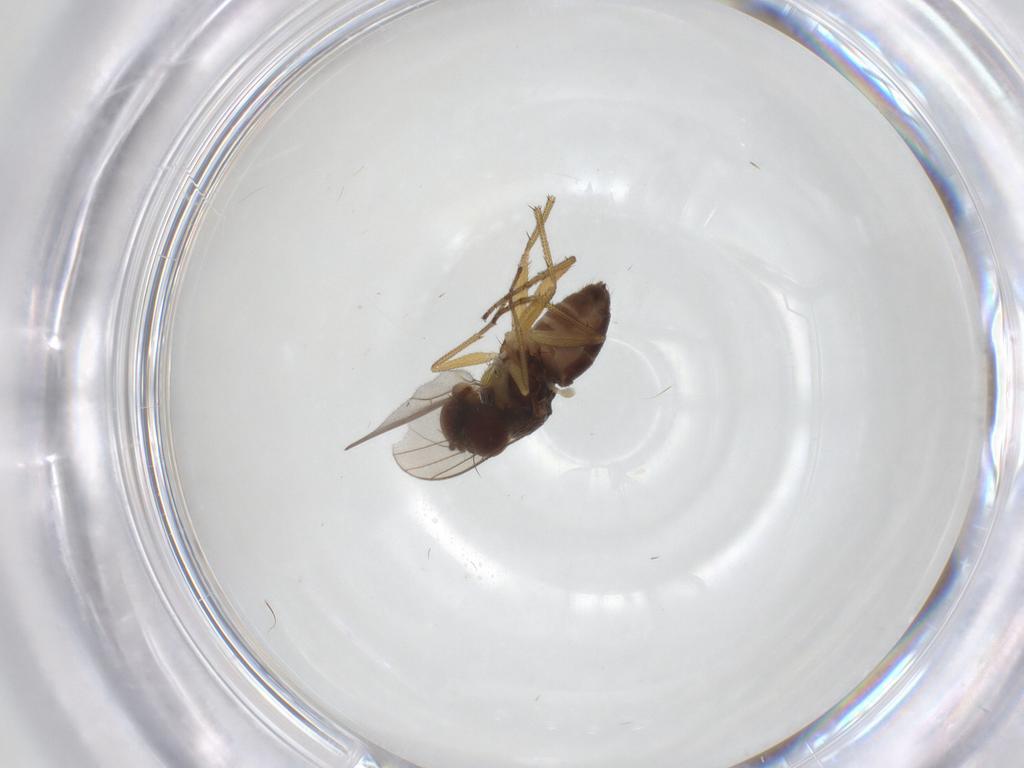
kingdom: Animalia
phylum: Arthropoda
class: Insecta
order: Diptera
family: Dolichopodidae
